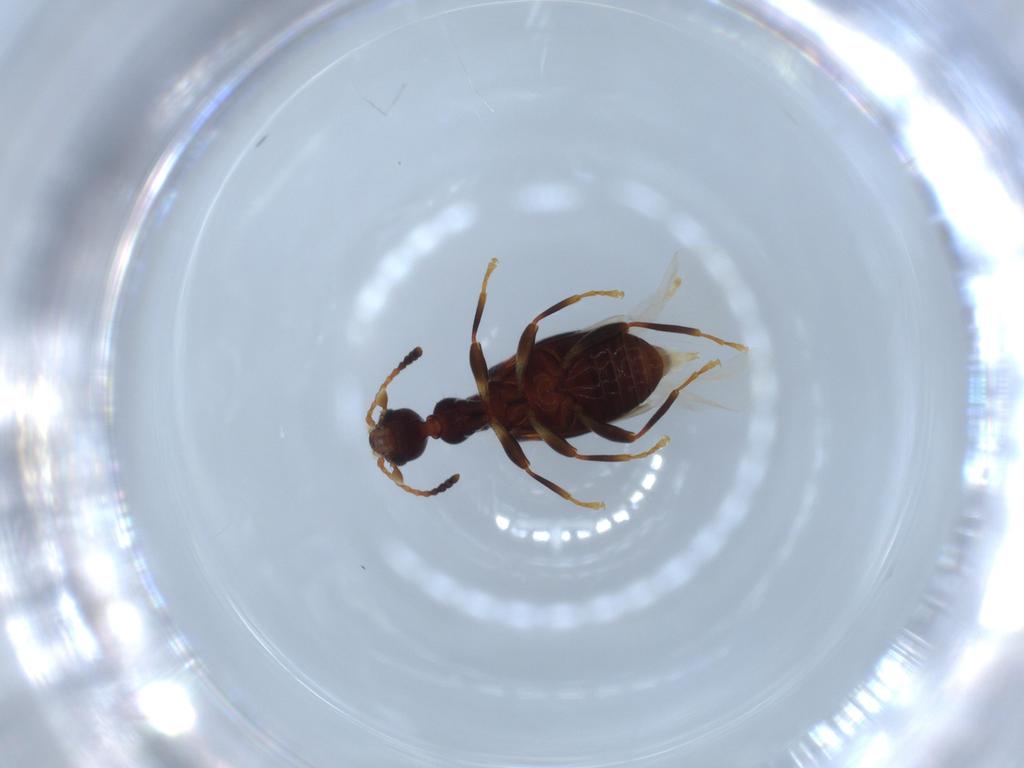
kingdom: Animalia
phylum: Arthropoda
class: Insecta
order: Coleoptera
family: Anthicidae
